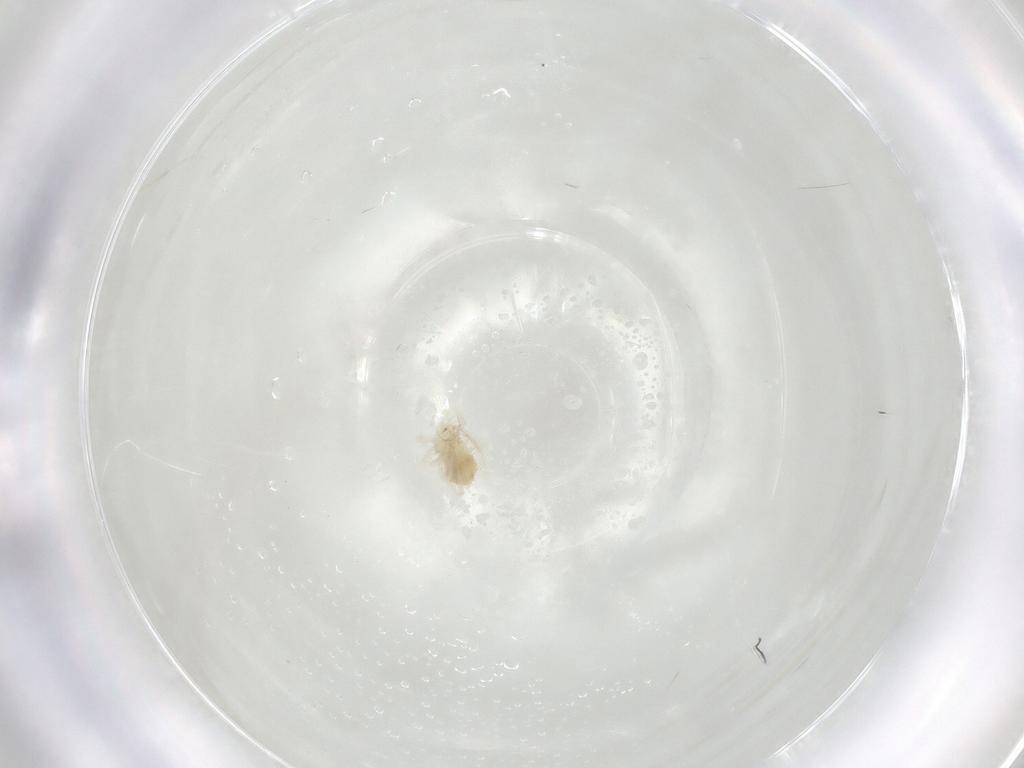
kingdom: Animalia
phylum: Arthropoda
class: Arachnida
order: Trombidiformes
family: Anystidae
